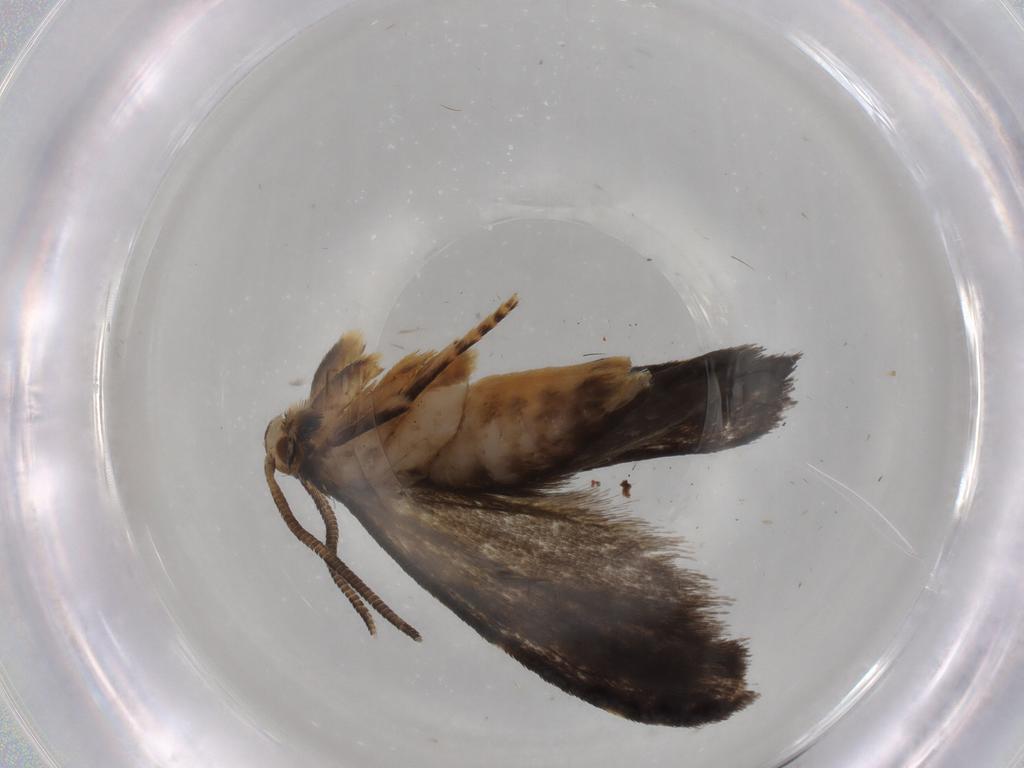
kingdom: Animalia
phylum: Arthropoda
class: Insecta
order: Lepidoptera
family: Dryadaulidae
